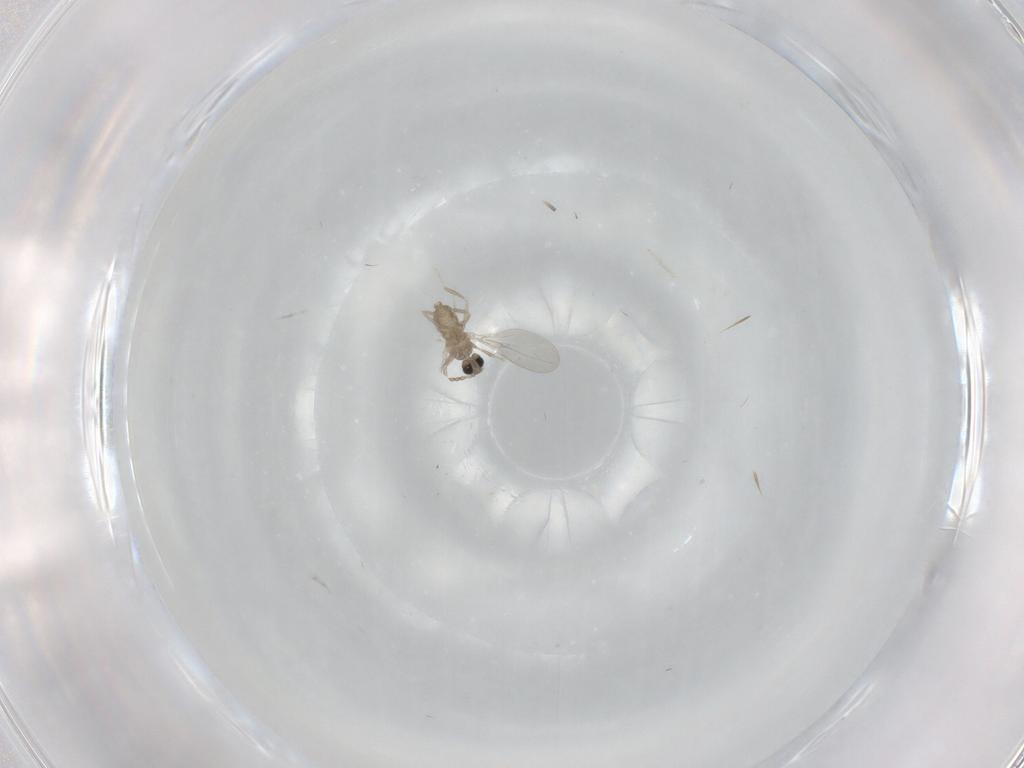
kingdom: Animalia
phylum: Arthropoda
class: Insecta
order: Diptera
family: Cecidomyiidae
